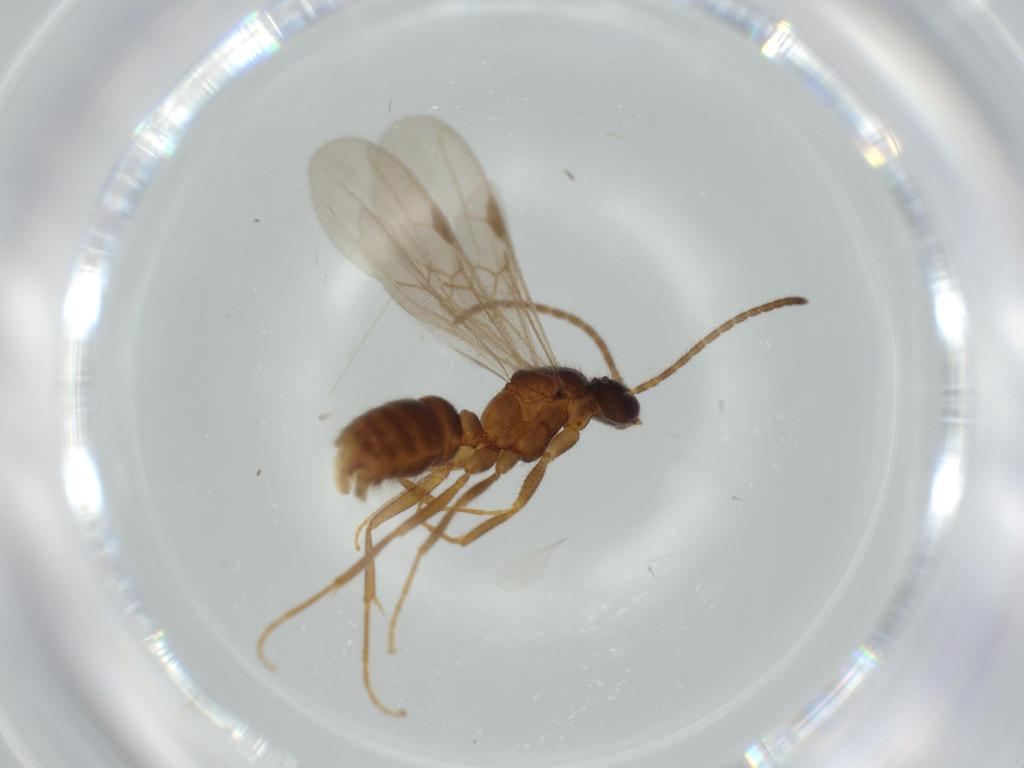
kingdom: Animalia
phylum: Arthropoda
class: Insecta
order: Hymenoptera
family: Formicidae
